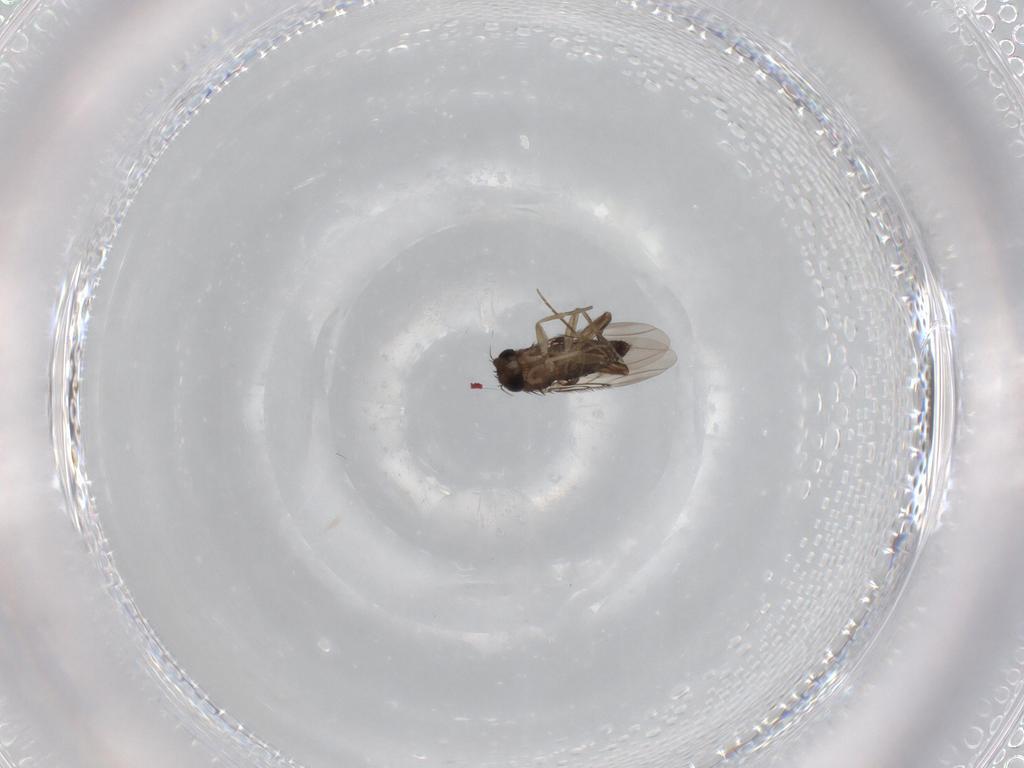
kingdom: Animalia
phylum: Arthropoda
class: Insecta
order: Diptera
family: Phoridae
